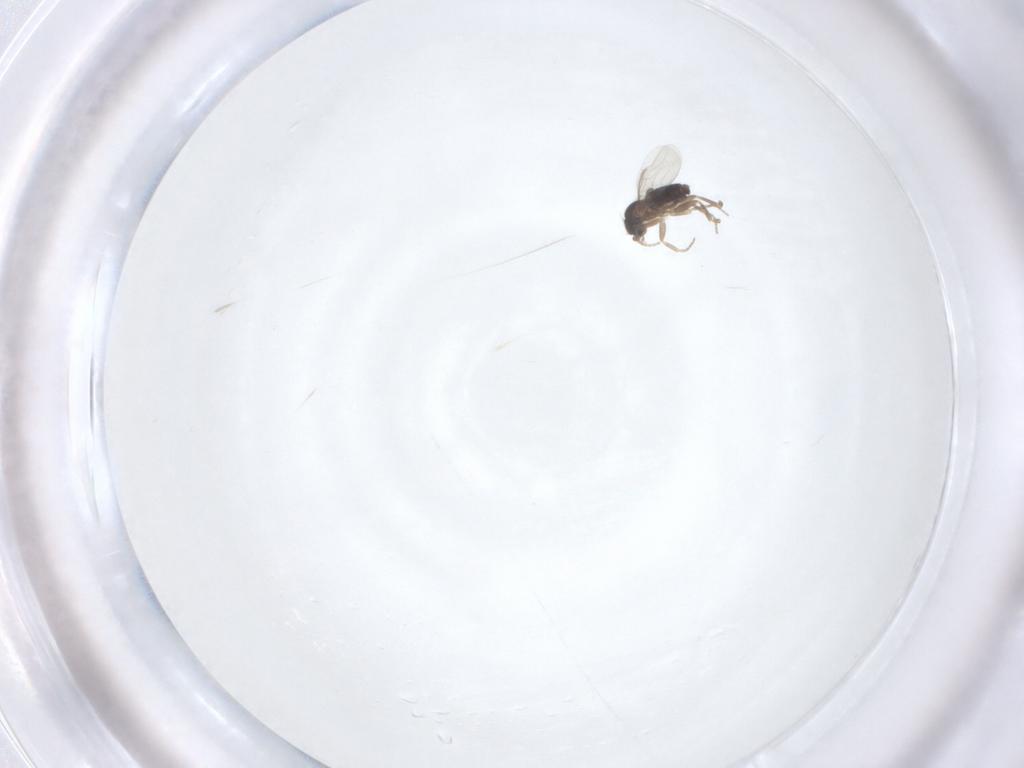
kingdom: Animalia
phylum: Arthropoda
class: Insecta
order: Diptera
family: Phoridae
